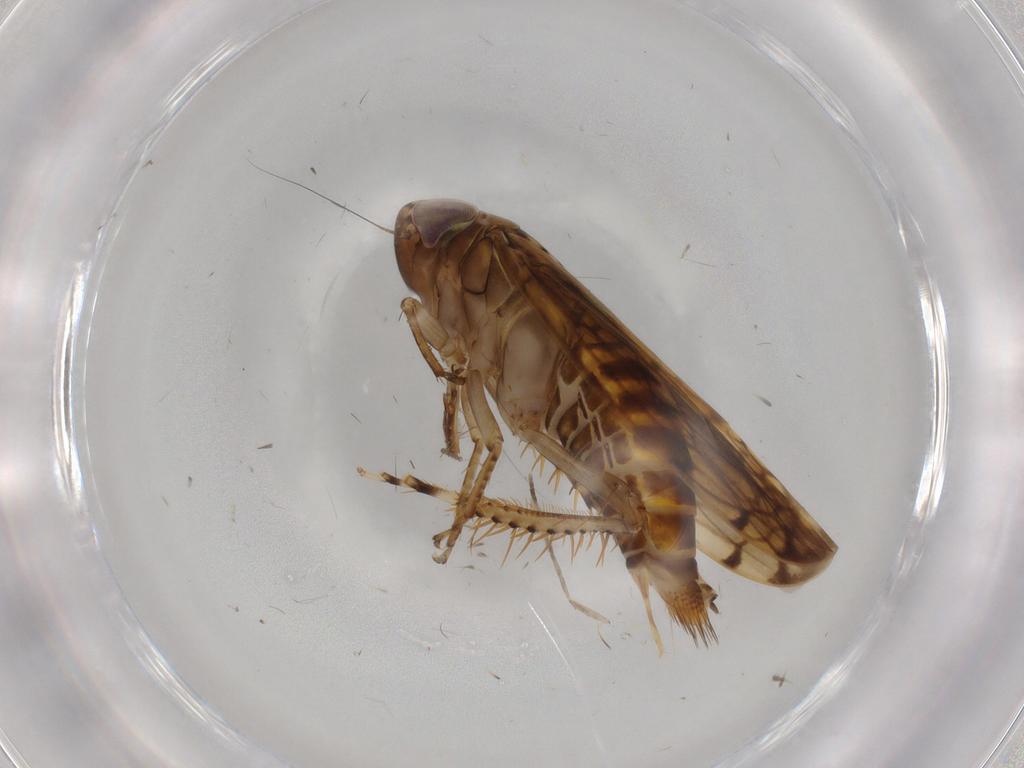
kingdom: Animalia
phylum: Arthropoda
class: Insecta
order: Hemiptera
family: Cicadellidae
